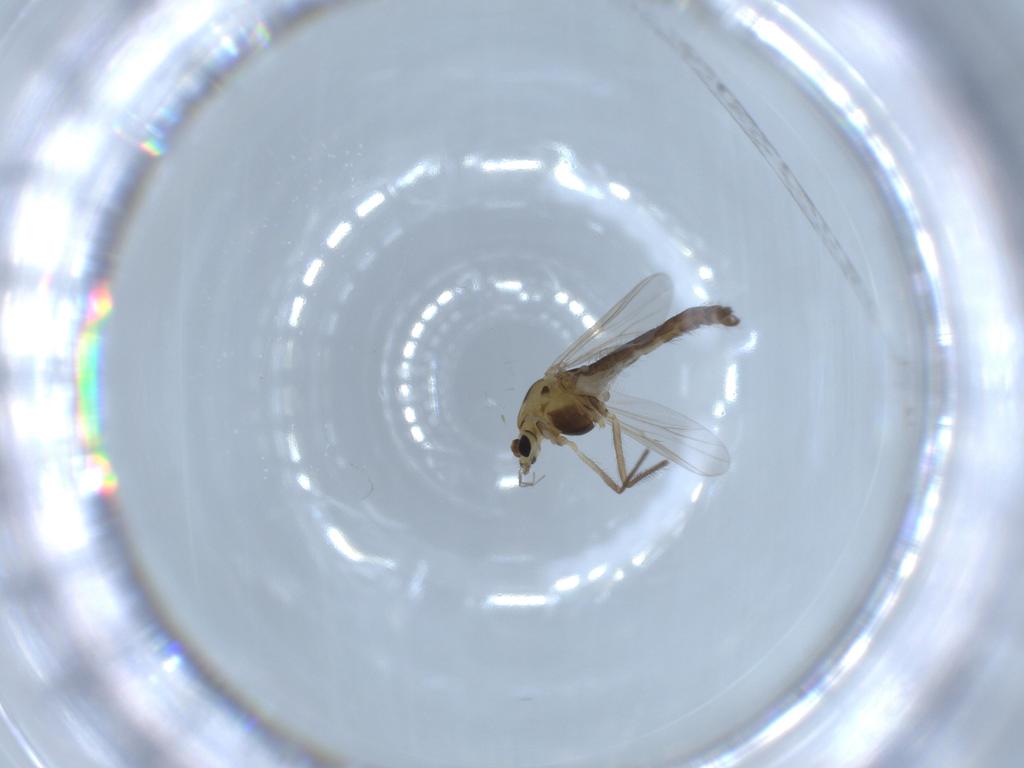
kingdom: Animalia
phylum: Arthropoda
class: Insecta
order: Diptera
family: Chironomidae
